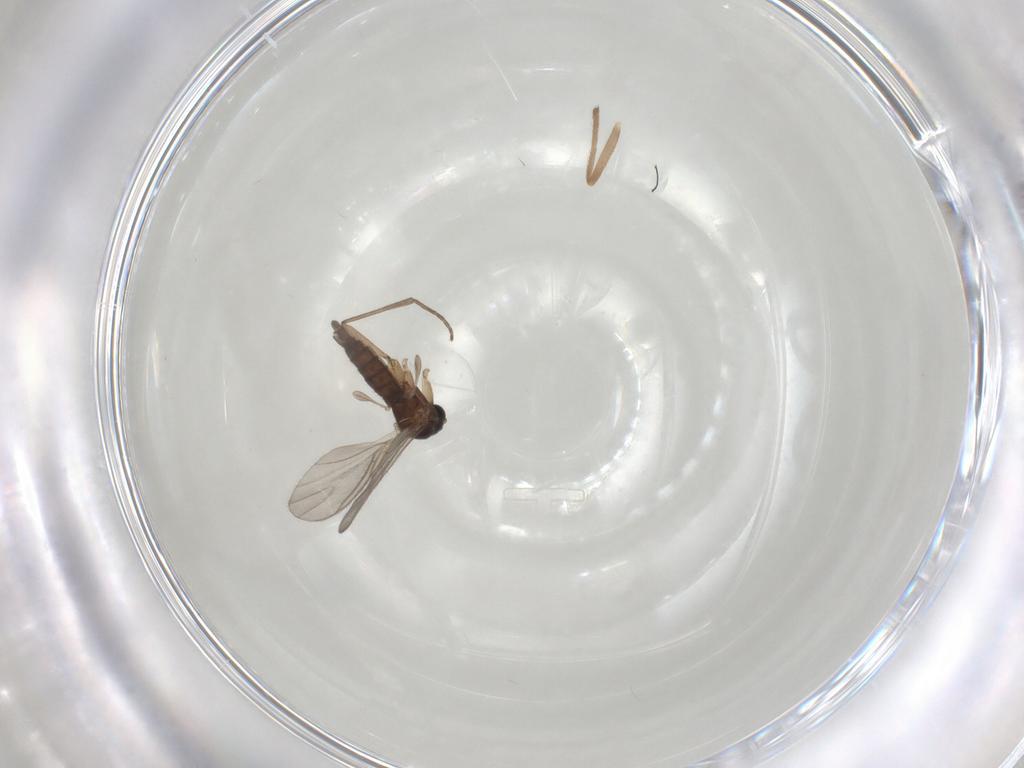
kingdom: Animalia
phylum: Arthropoda
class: Insecta
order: Diptera
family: Sciaridae
